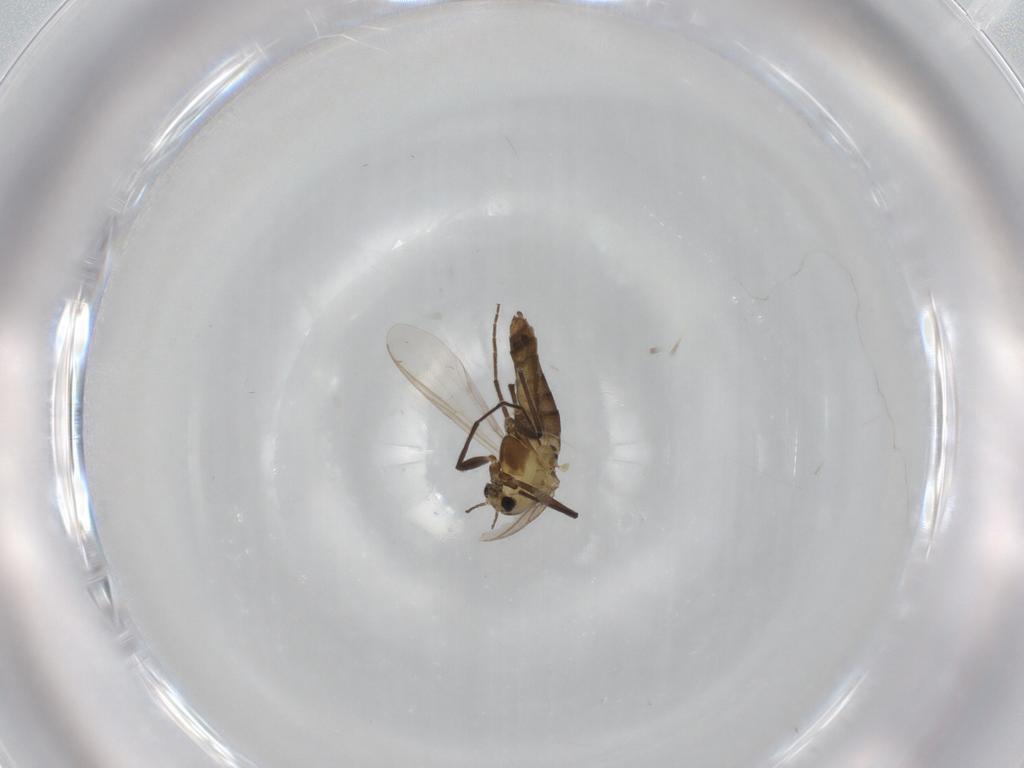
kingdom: Animalia
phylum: Arthropoda
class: Insecta
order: Diptera
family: Chironomidae
